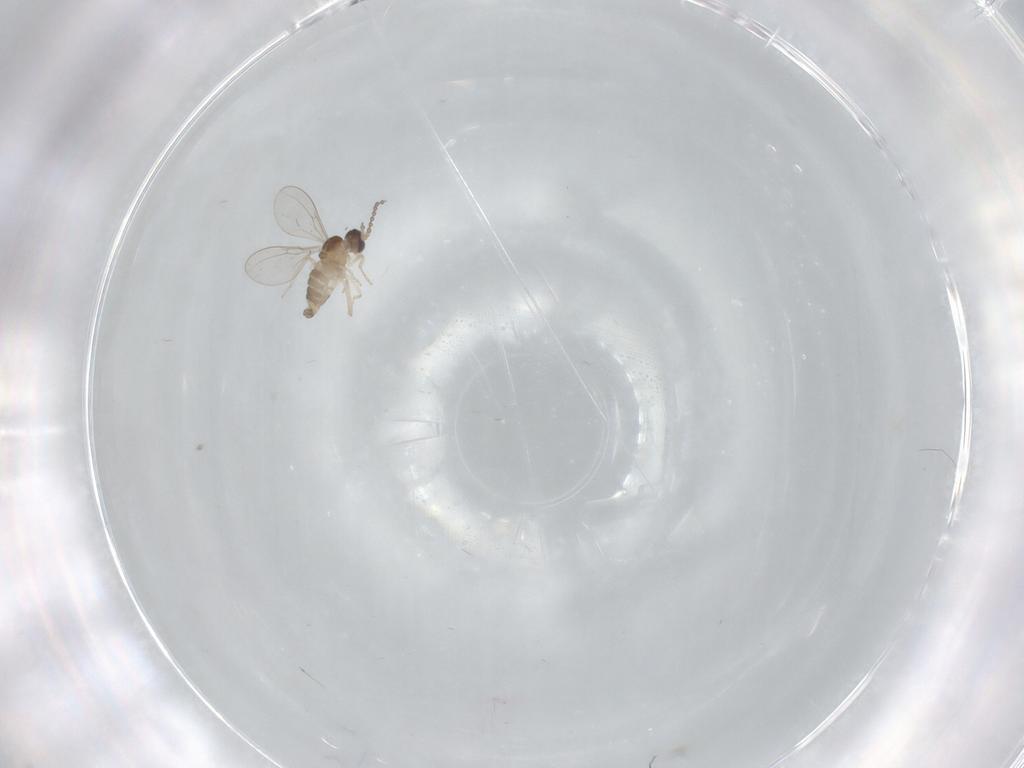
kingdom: Animalia
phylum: Arthropoda
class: Insecta
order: Diptera
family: Cecidomyiidae
